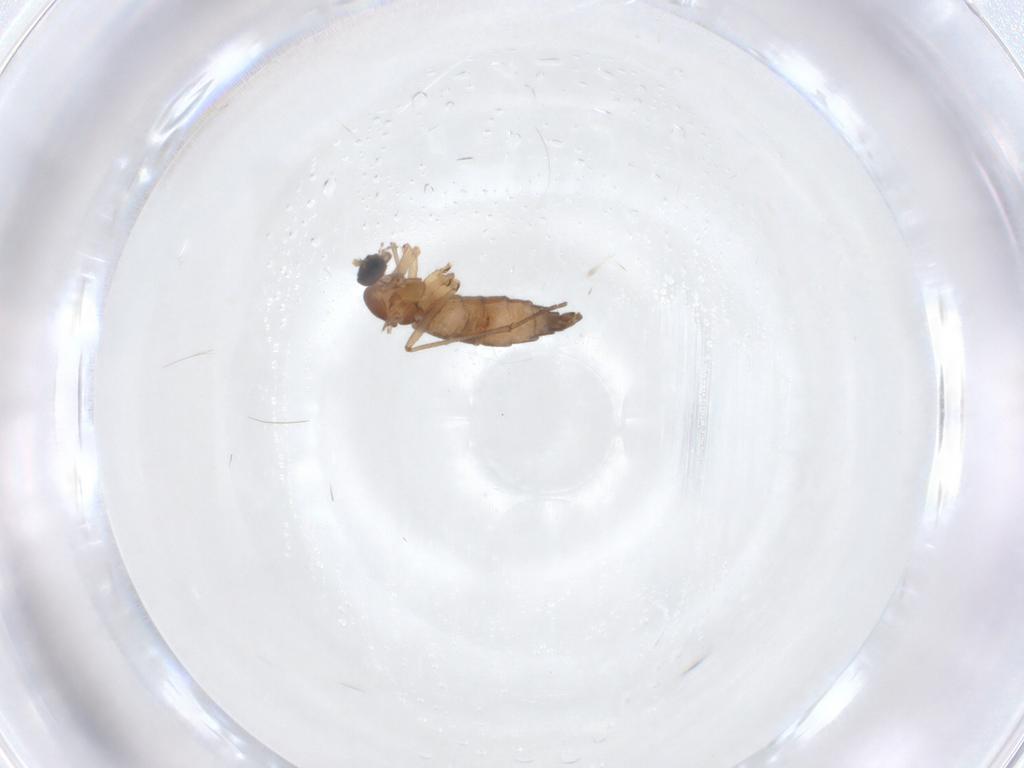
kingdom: Animalia
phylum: Arthropoda
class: Insecta
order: Diptera
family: Sciaridae
